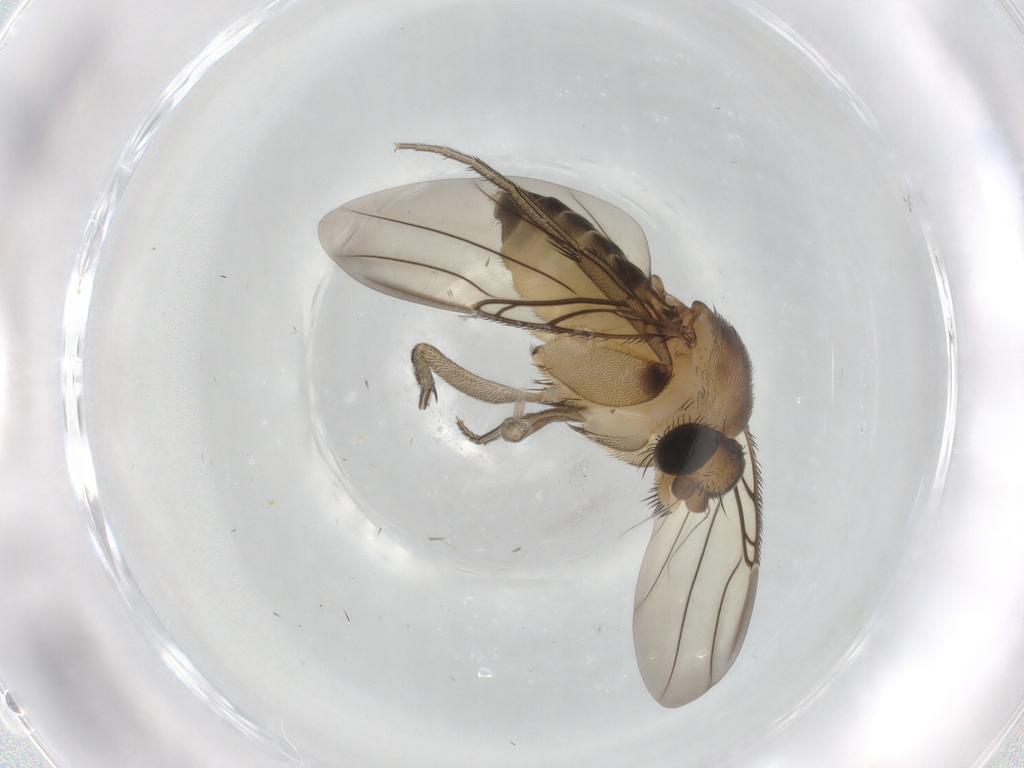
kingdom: Animalia
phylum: Arthropoda
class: Insecta
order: Diptera
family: Phoridae
